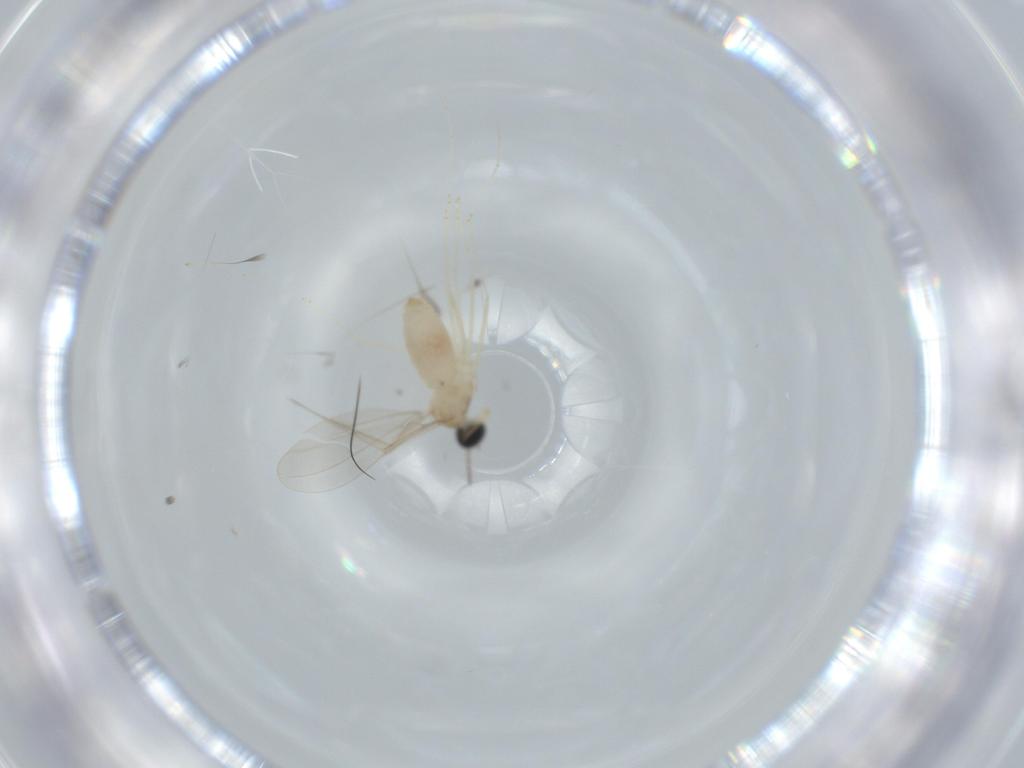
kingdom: Animalia
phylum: Arthropoda
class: Insecta
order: Diptera
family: Cecidomyiidae
